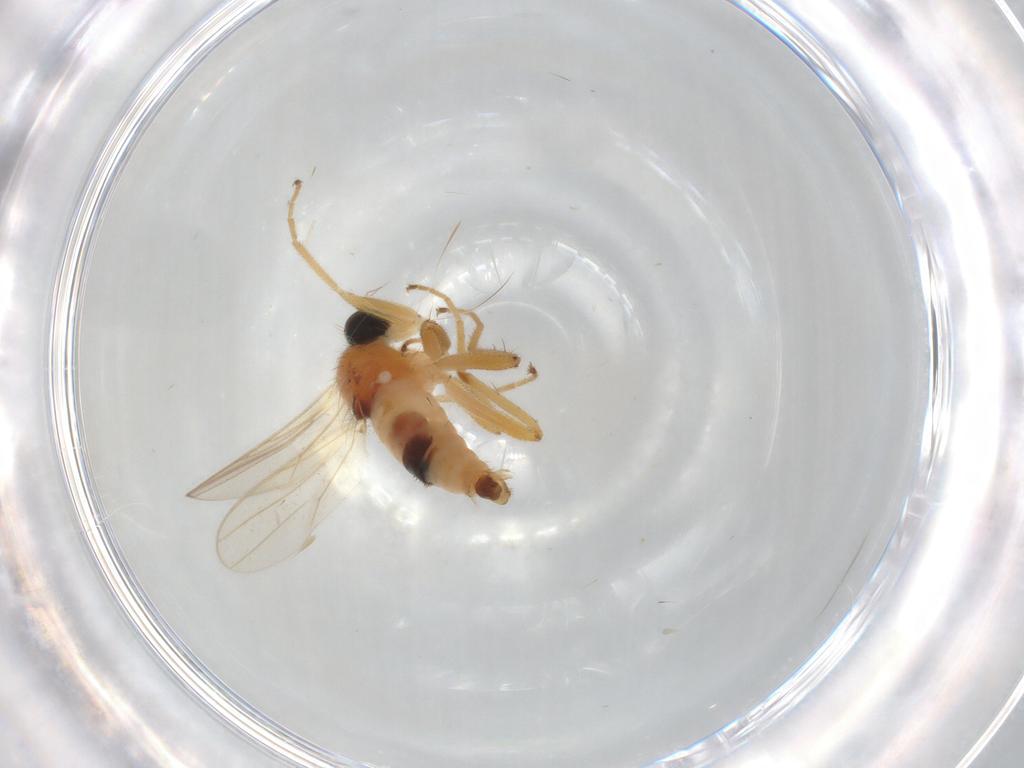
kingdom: Animalia
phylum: Arthropoda
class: Insecta
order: Diptera
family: Hybotidae
